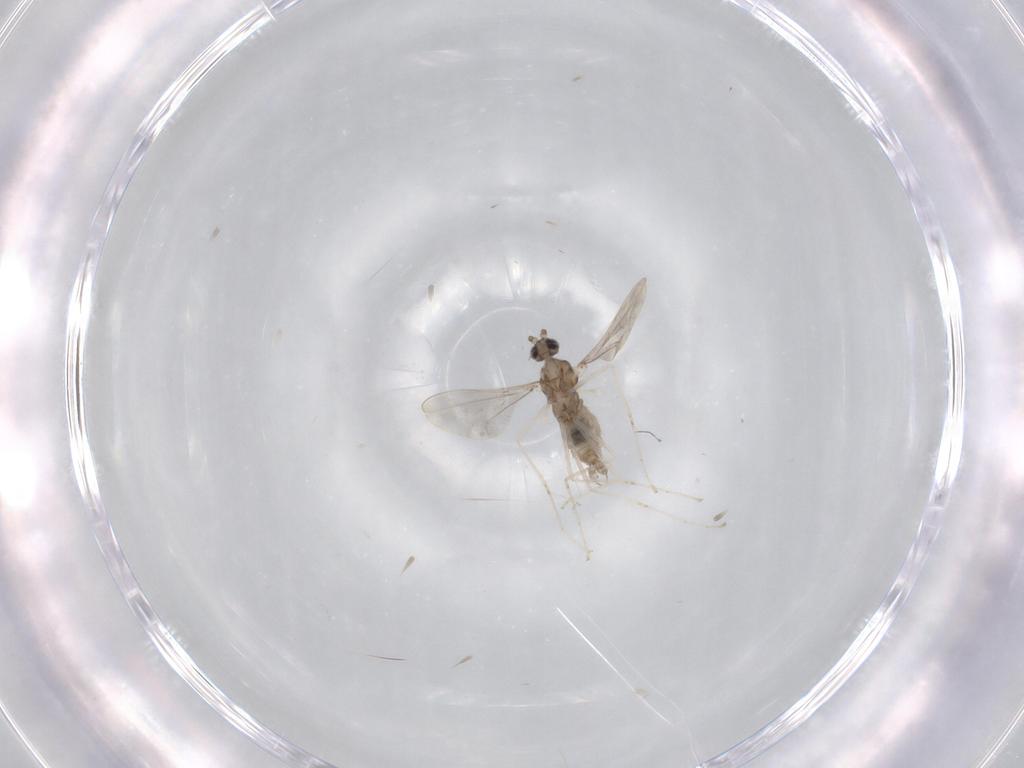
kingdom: Animalia
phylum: Arthropoda
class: Insecta
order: Diptera
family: Cecidomyiidae
